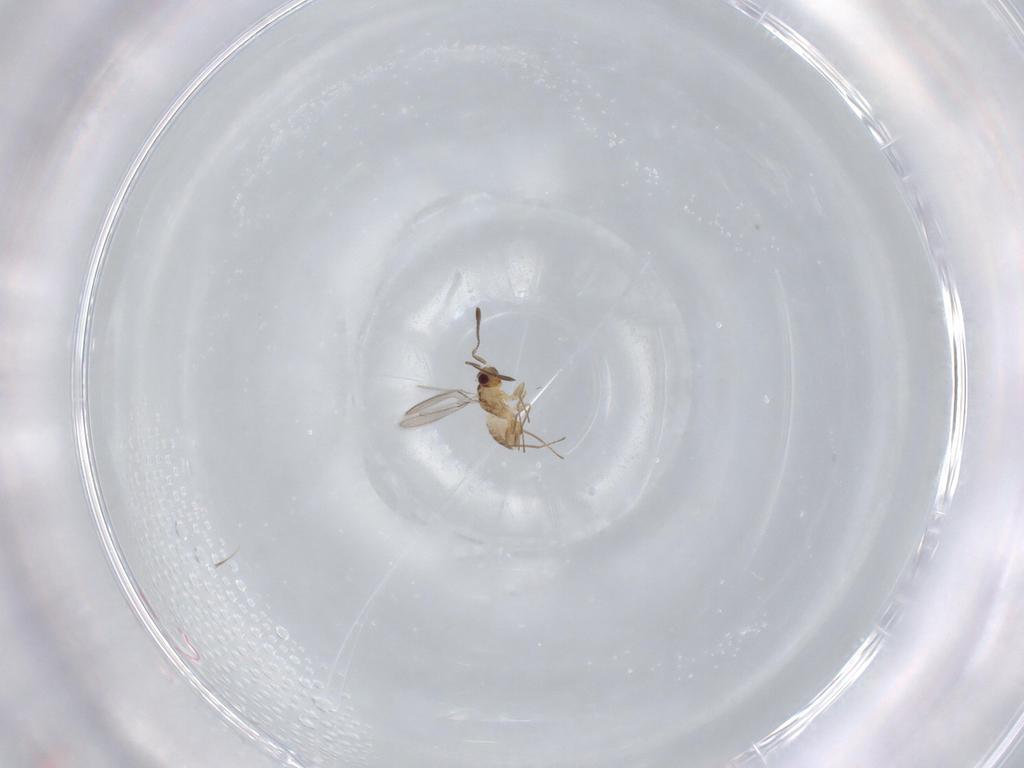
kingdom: Animalia
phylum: Arthropoda
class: Insecta
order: Hymenoptera
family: Mymaridae
